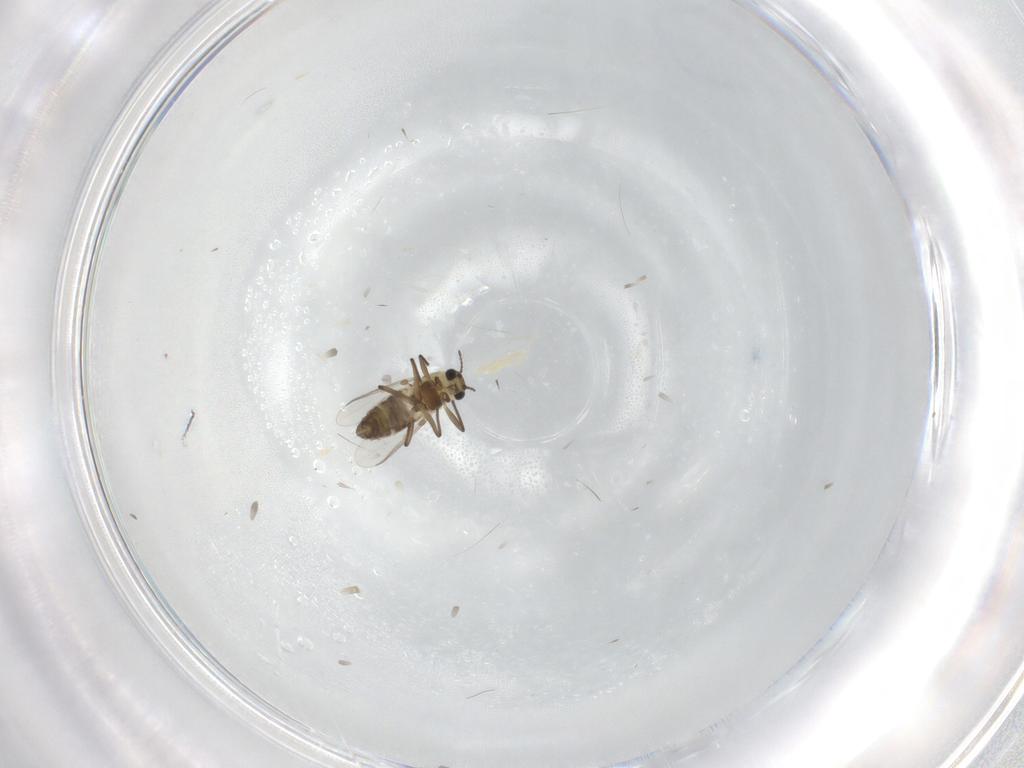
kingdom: Animalia
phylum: Arthropoda
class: Insecta
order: Diptera
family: Chironomidae
